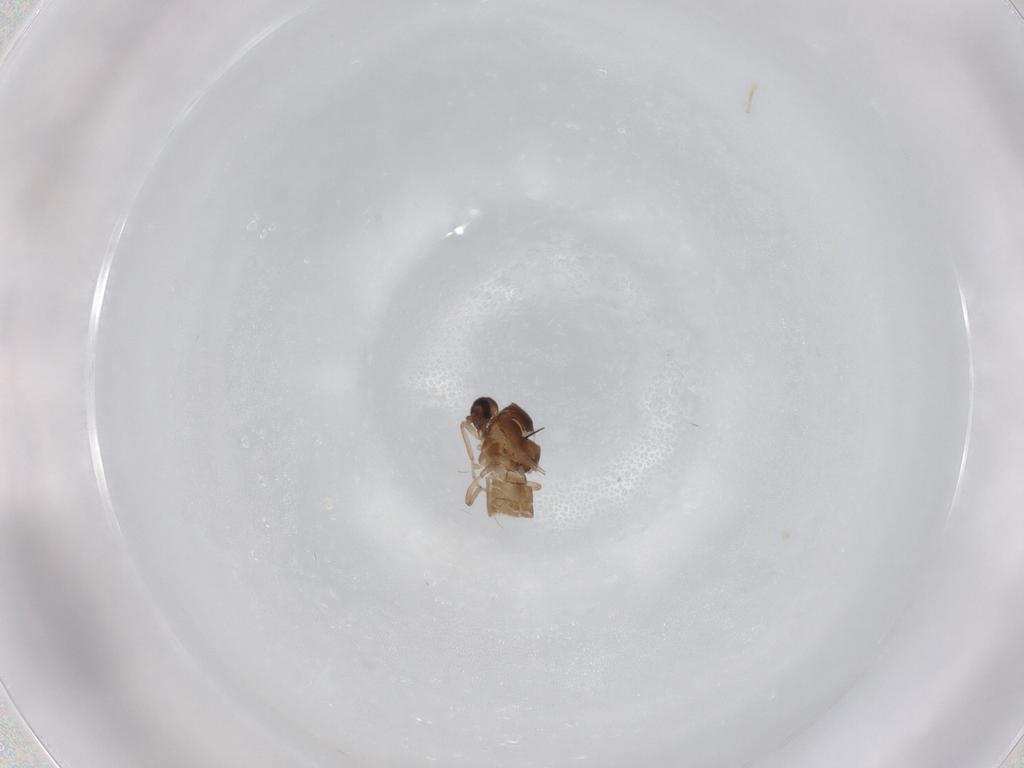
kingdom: Animalia
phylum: Arthropoda
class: Insecta
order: Diptera
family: Ceratopogonidae
